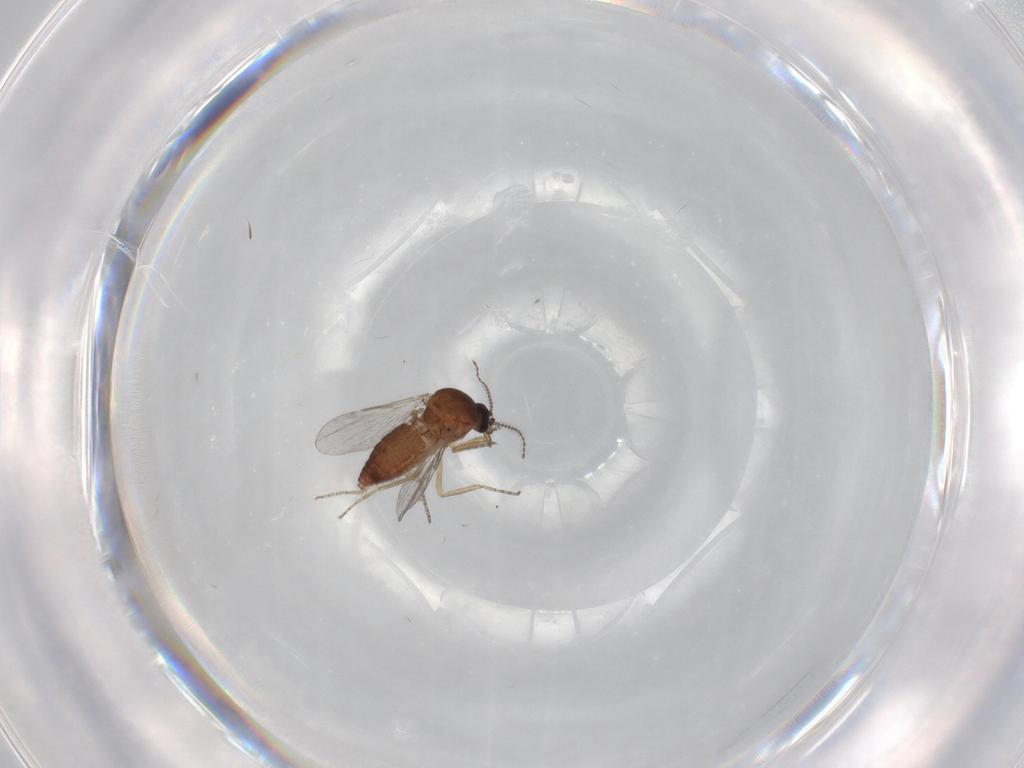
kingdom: Animalia
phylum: Arthropoda
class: Insecta
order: Diptera
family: Ceratopogonidae
